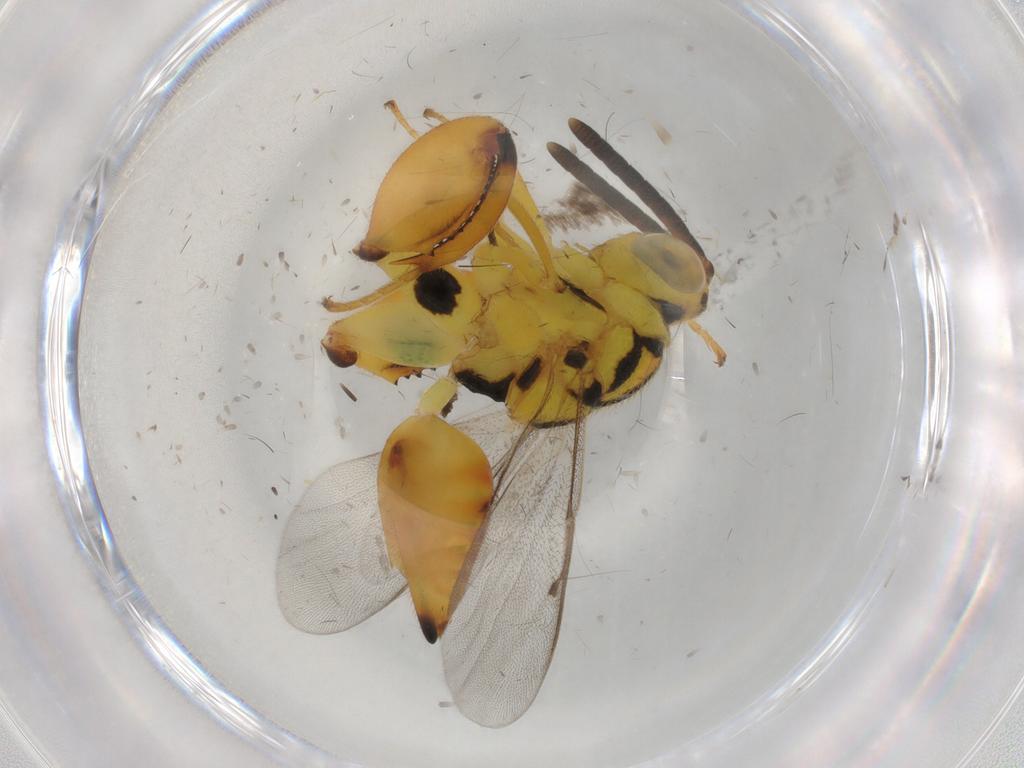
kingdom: Animalia
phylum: Arthropoda
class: Insecta
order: Hymenoptera
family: Chalcididae
